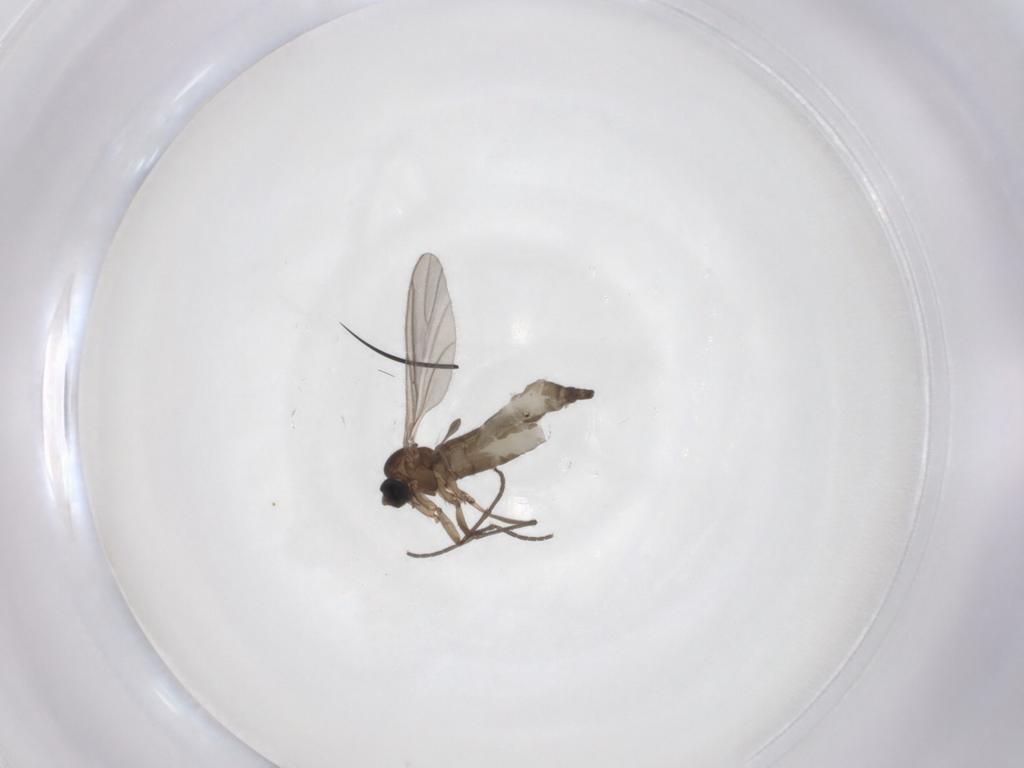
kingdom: Animalia
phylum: Arthropoda
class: Insecta
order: Diptera
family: Sciaridae
